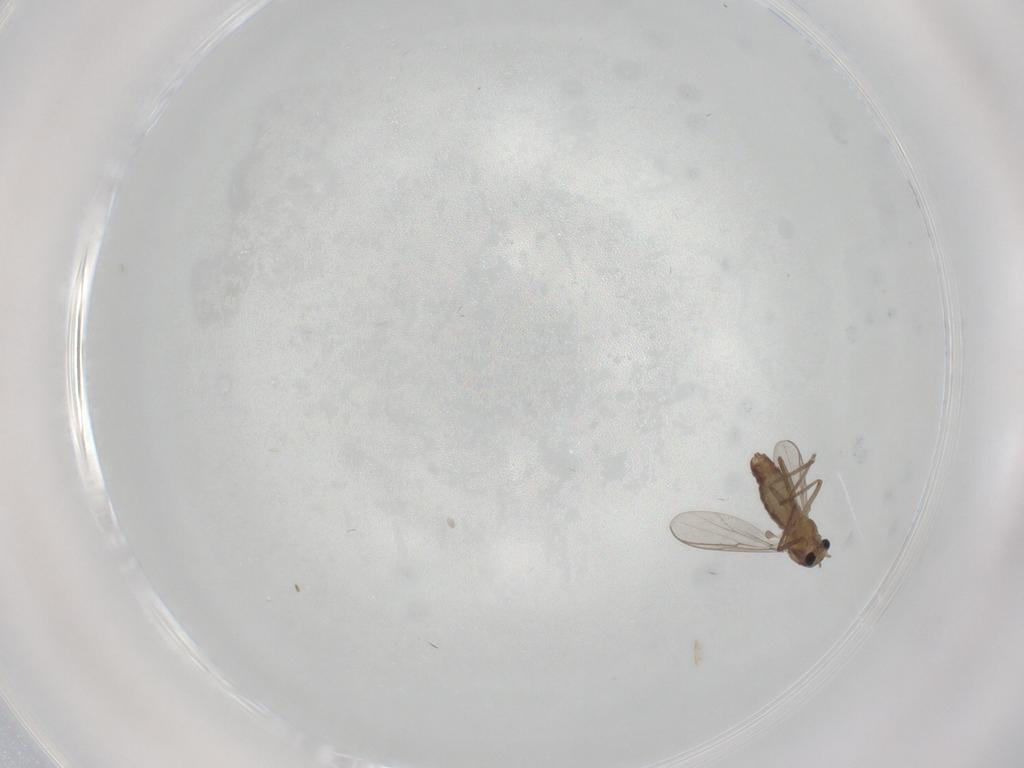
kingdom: Animalia
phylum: Arthropoda
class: Insecta
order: Diptera
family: Chironomidae
